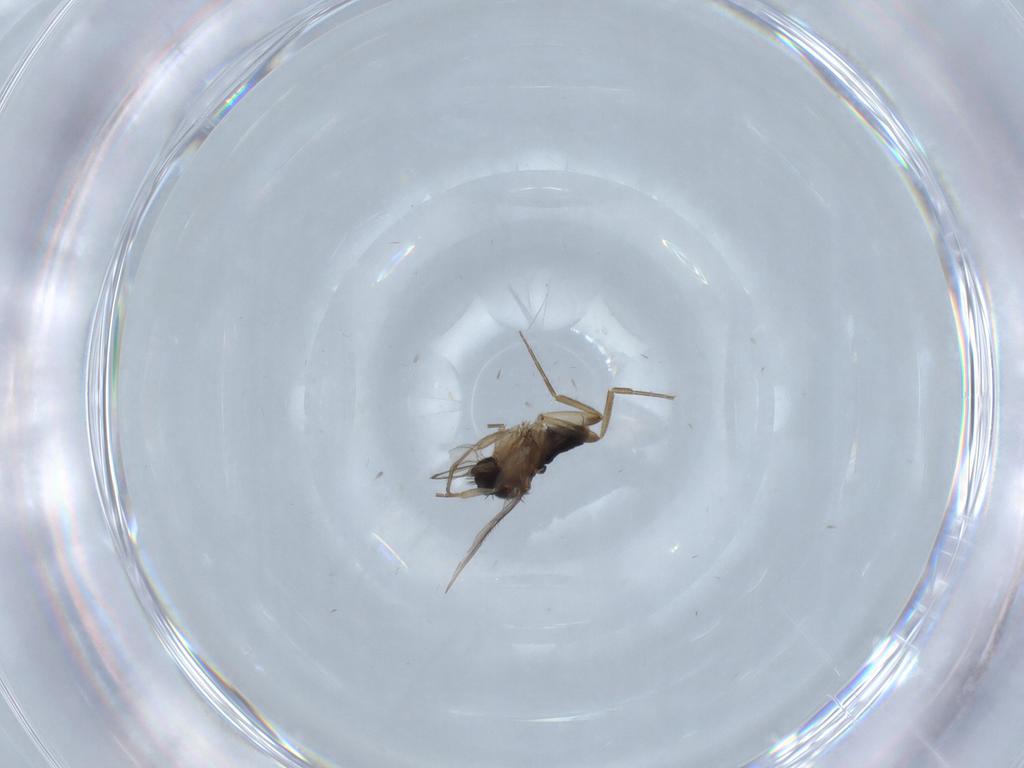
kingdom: Animalia
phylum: Arthropoda
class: Insecta
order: Diptera
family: Phoridae
